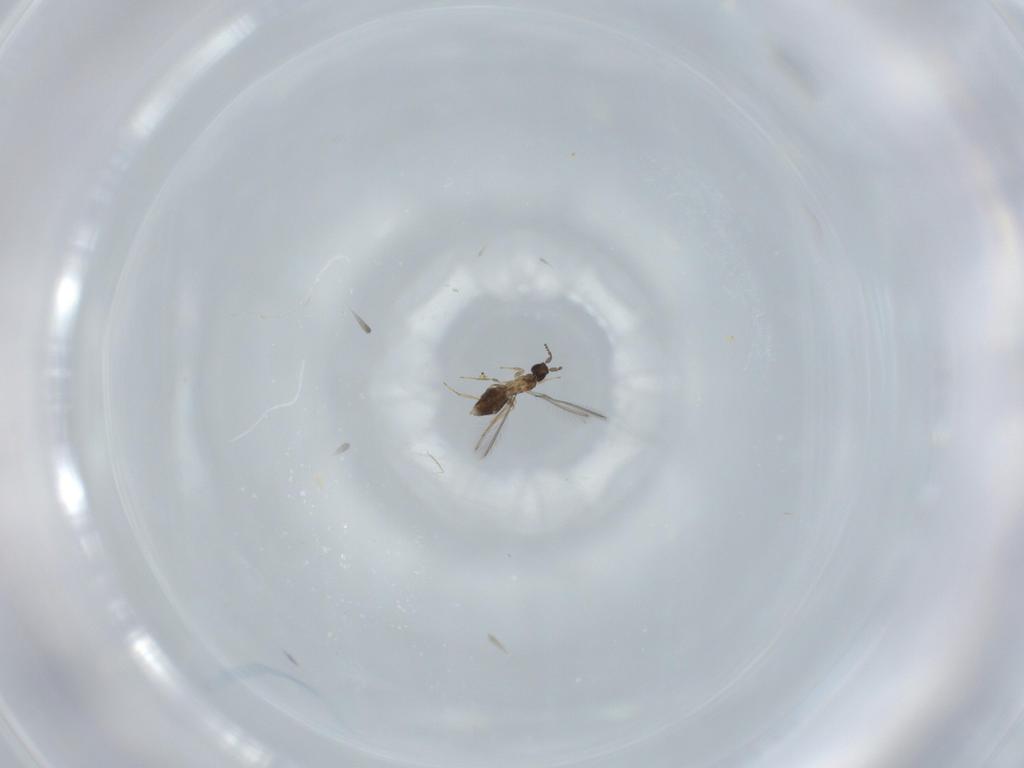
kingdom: Animalia
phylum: Arthropoda
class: Insecta
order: Hymenoptera
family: Mymaridae
